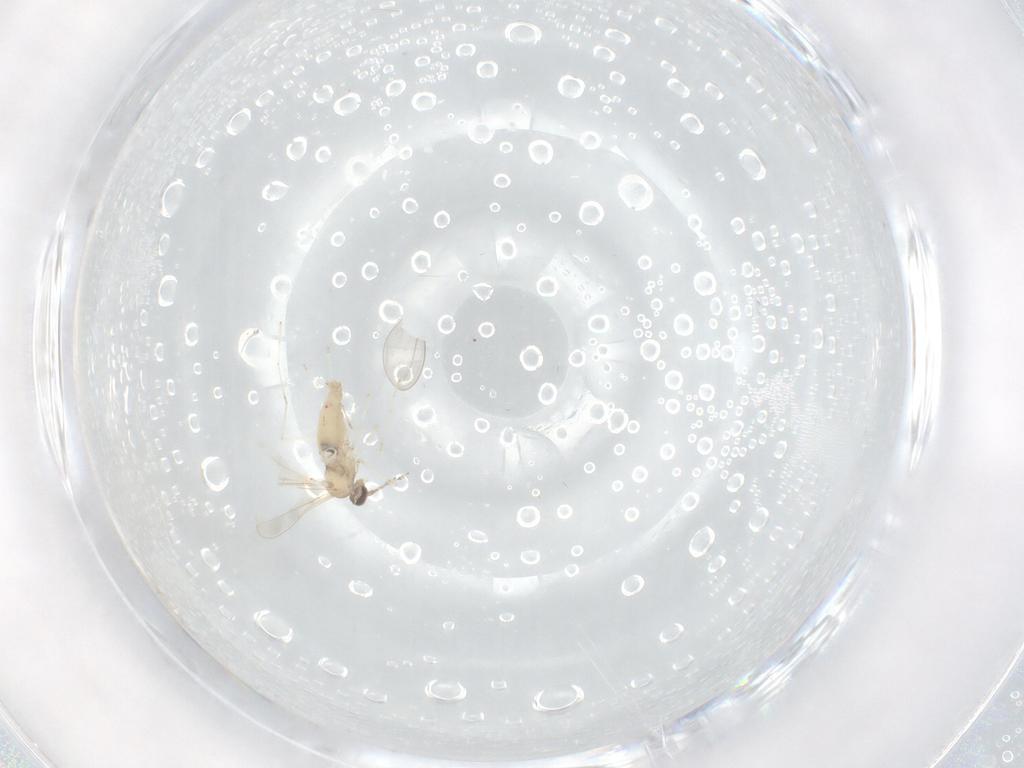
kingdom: Animalia
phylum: Arthropoda
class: Insecta
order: Diptera
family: Cecidomyiidae
